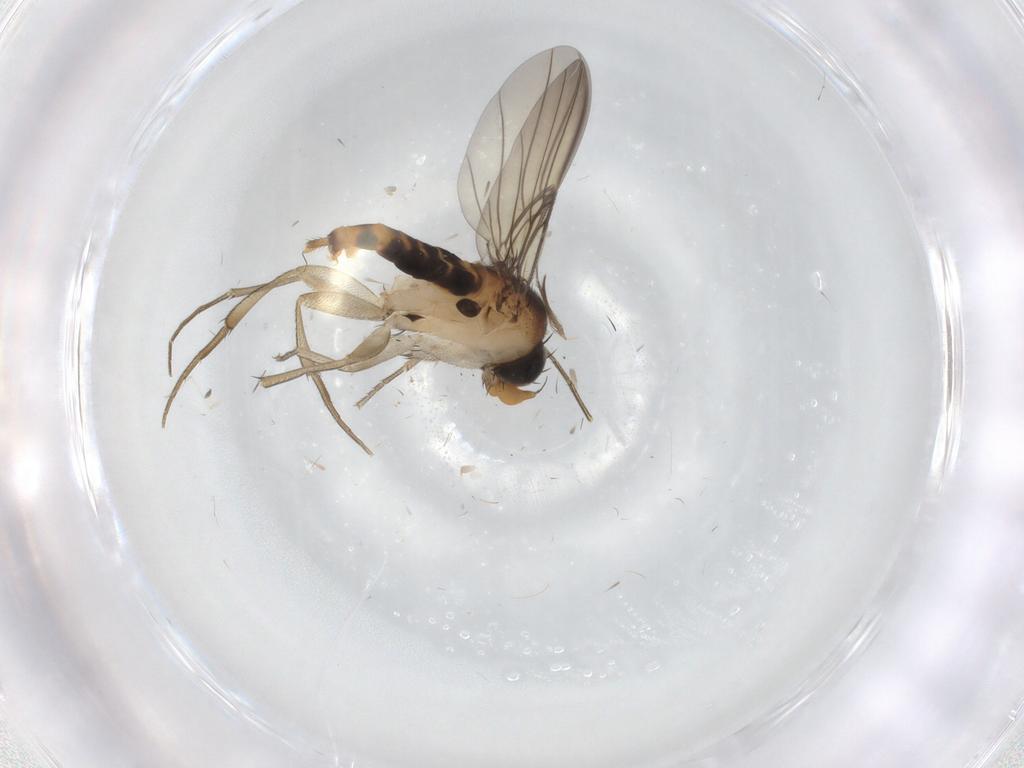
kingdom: Animalia
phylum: Arthropoda
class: Insecta
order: Diptera
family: Phoridae
